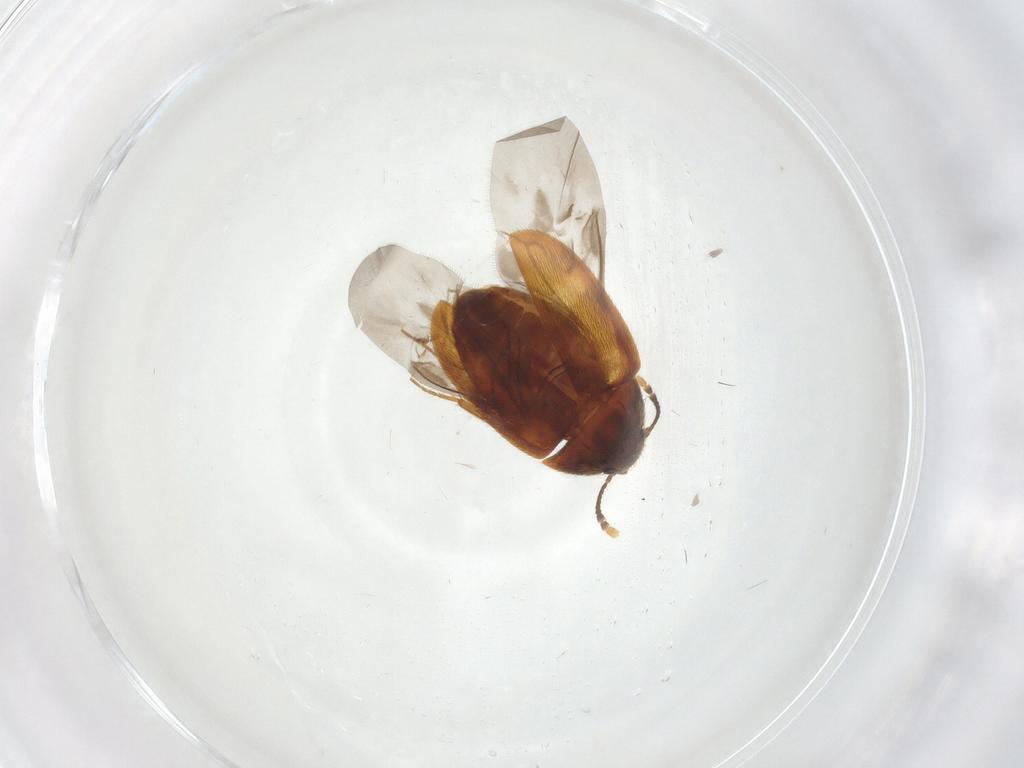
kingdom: Animalia
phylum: Arthropoda
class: Insecta
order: Coleoptera
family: Mycetophagidae
